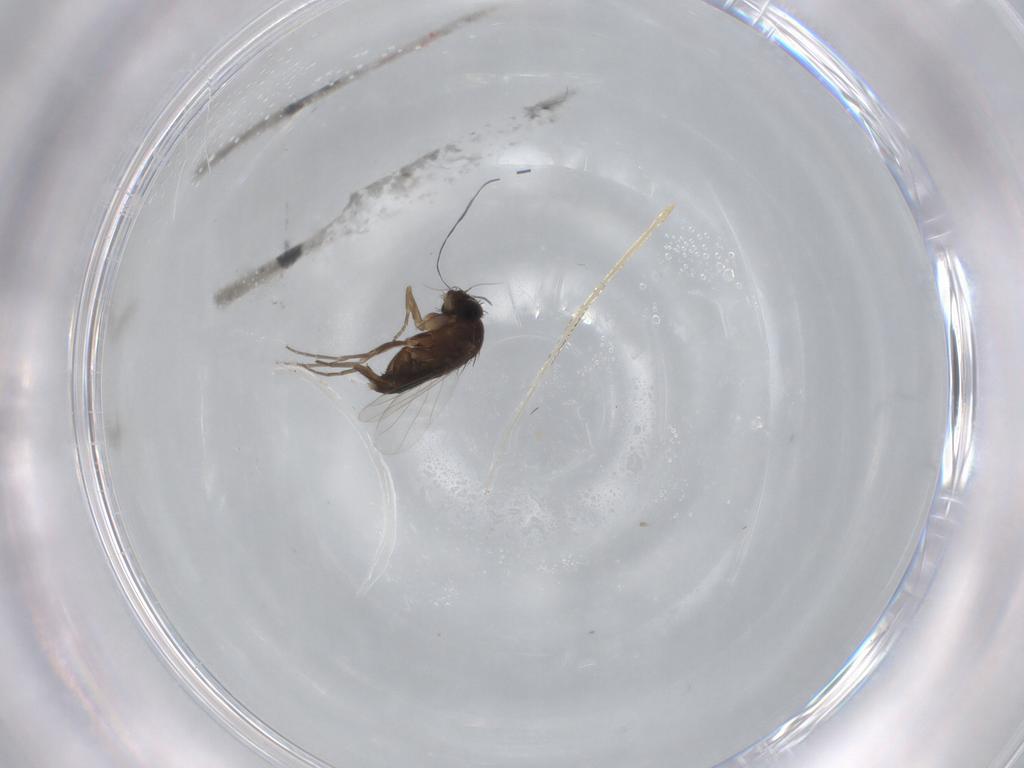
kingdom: Animalia
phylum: Arthropoda
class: Insecta
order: Diptera
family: Phoridae
